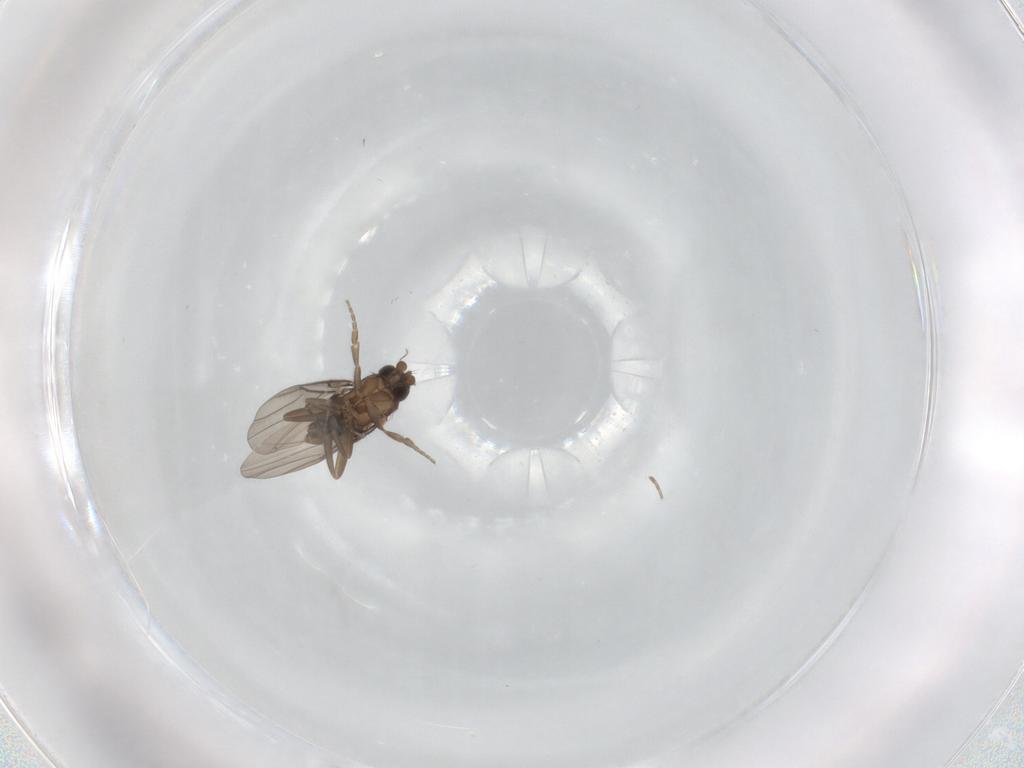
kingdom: Animalia
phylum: Arthropoda
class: Insecta
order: Diptera
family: Cecidomyiidae
